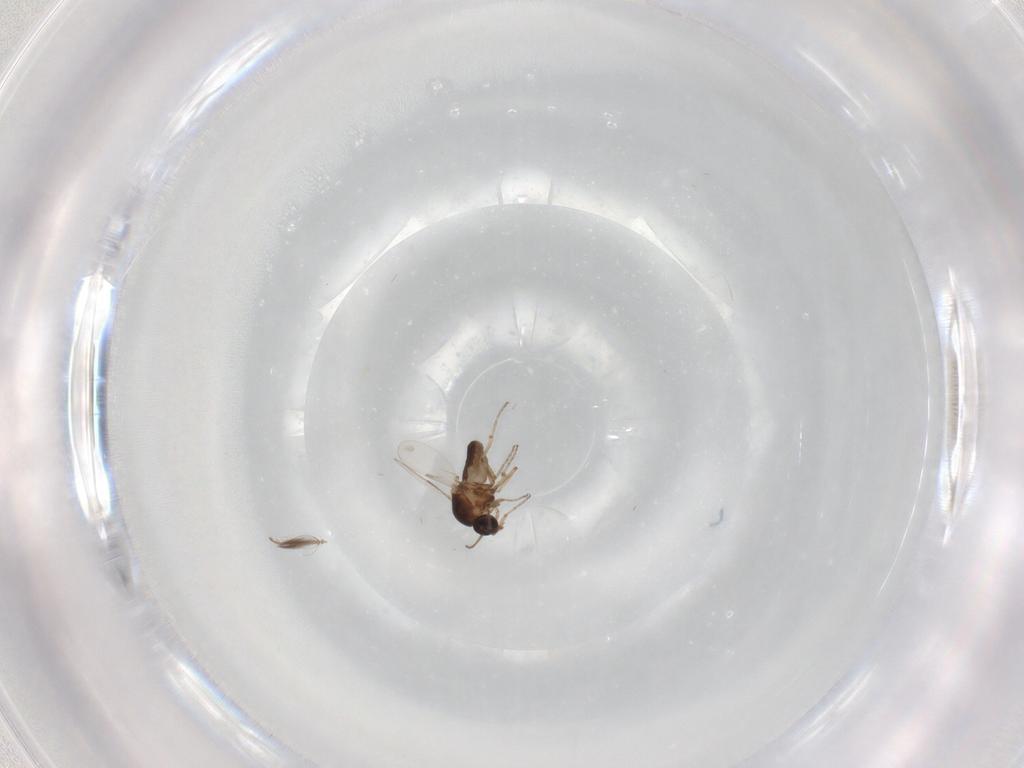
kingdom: Animalia
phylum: Arthropoda
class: Insecta
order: Diptera
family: Ceratopogonidae
